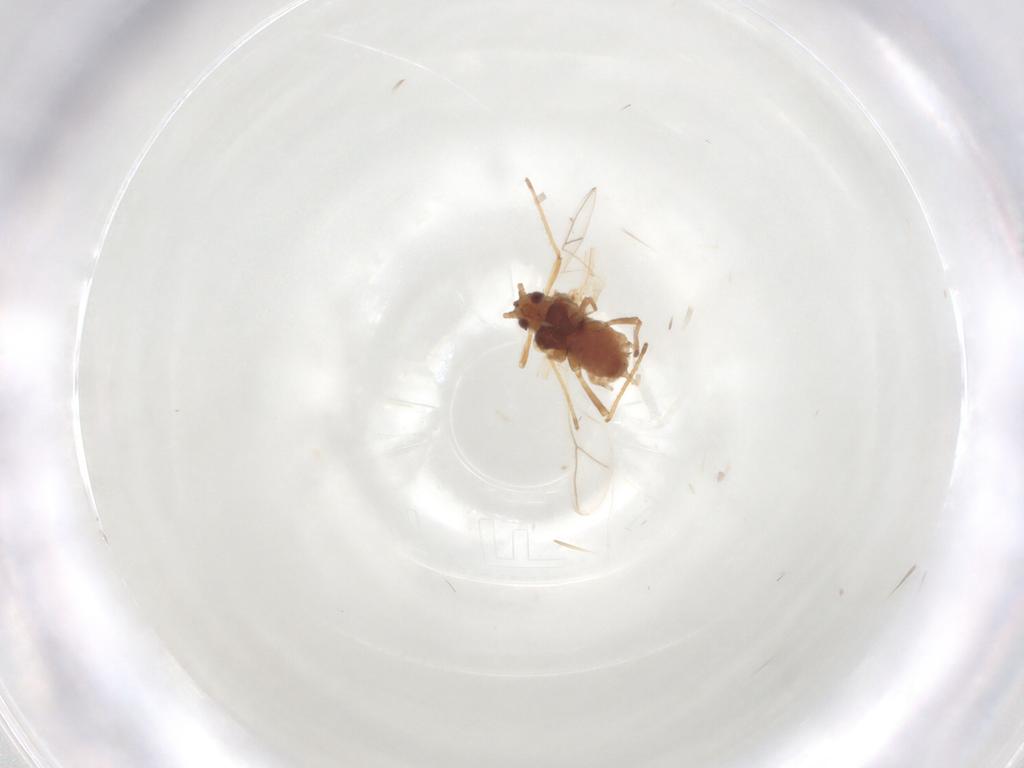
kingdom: Animalia
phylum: Arthropoda
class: Insecta
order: Hemiptera
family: Aphididae
